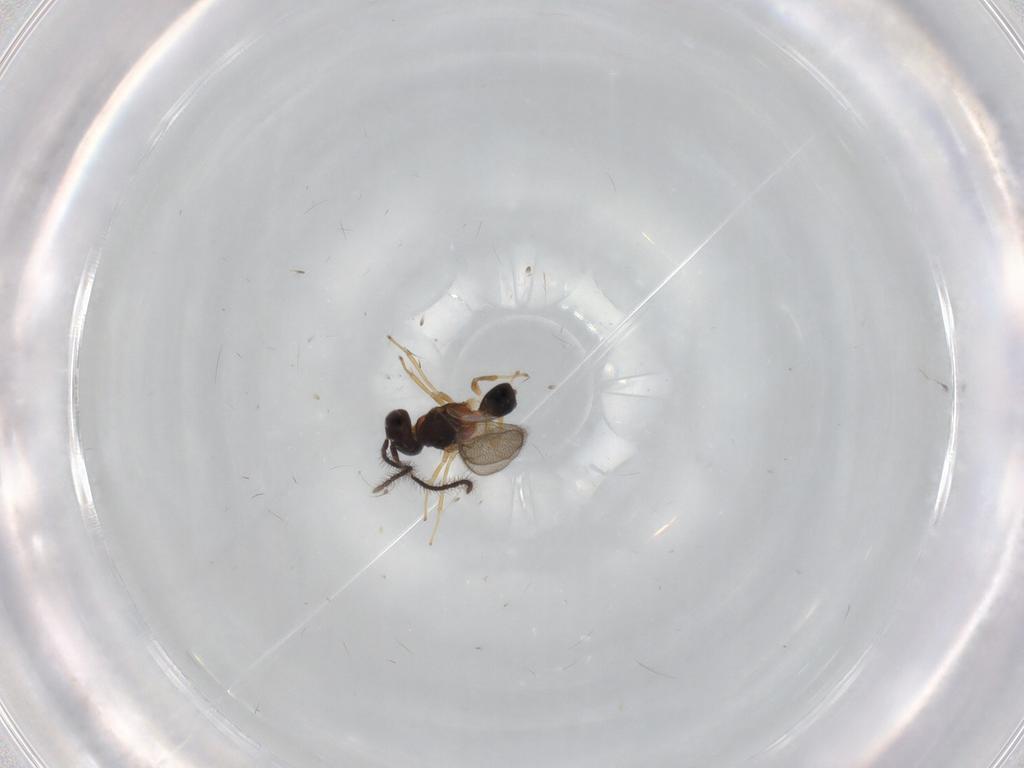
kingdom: Animalia
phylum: Arthropoda
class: Insecta
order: Hymenoptera
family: Diparidae
